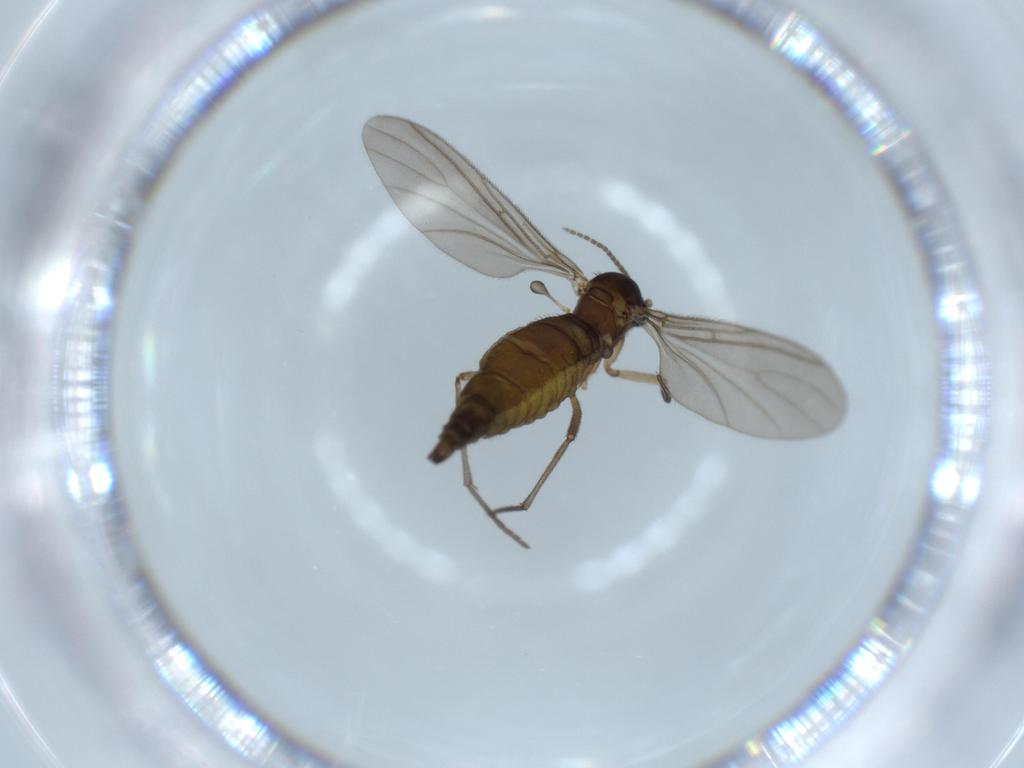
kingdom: Animalia
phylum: Arthropoda
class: Insecta
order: Diptera
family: Sciaridae
